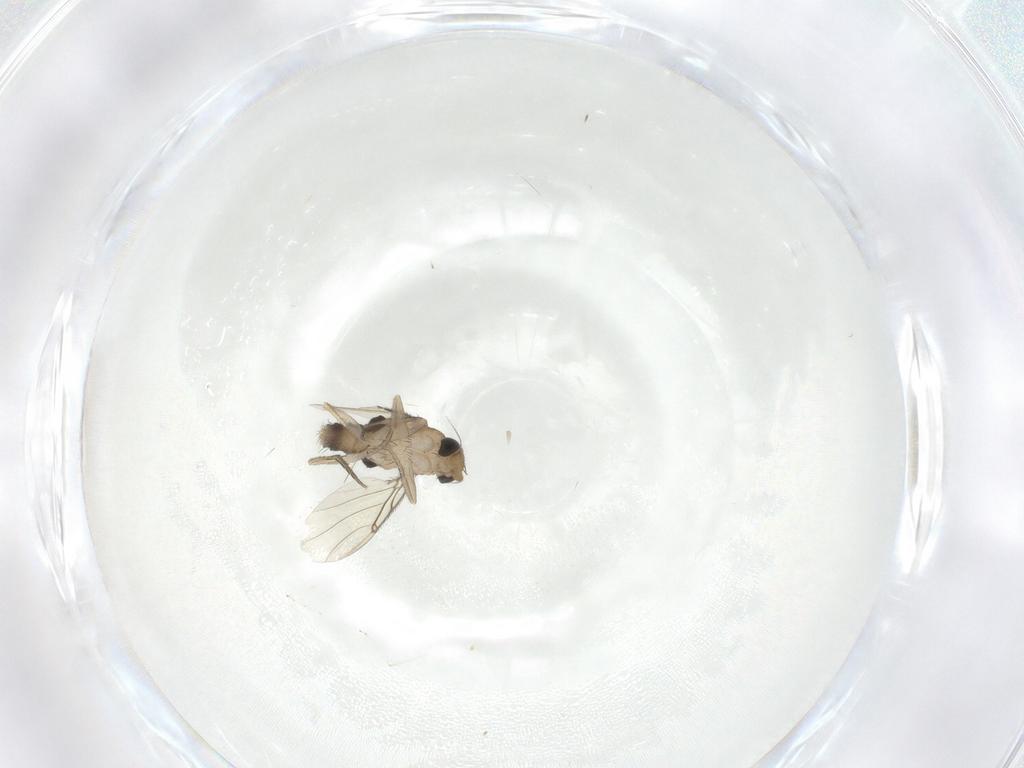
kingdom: Animalia
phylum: Arthropoda
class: Insecta
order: Diptera
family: Phoridae
